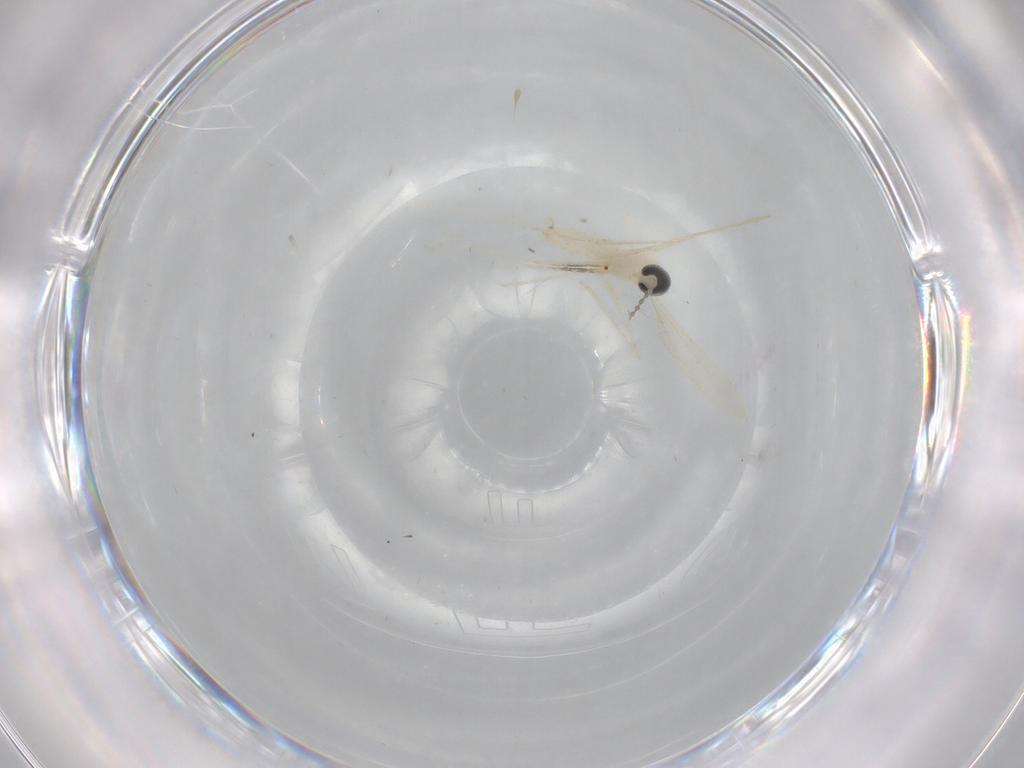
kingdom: Animalia
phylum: Arthropoda
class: Insecta
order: Diptera
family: Cecidomyiidae
